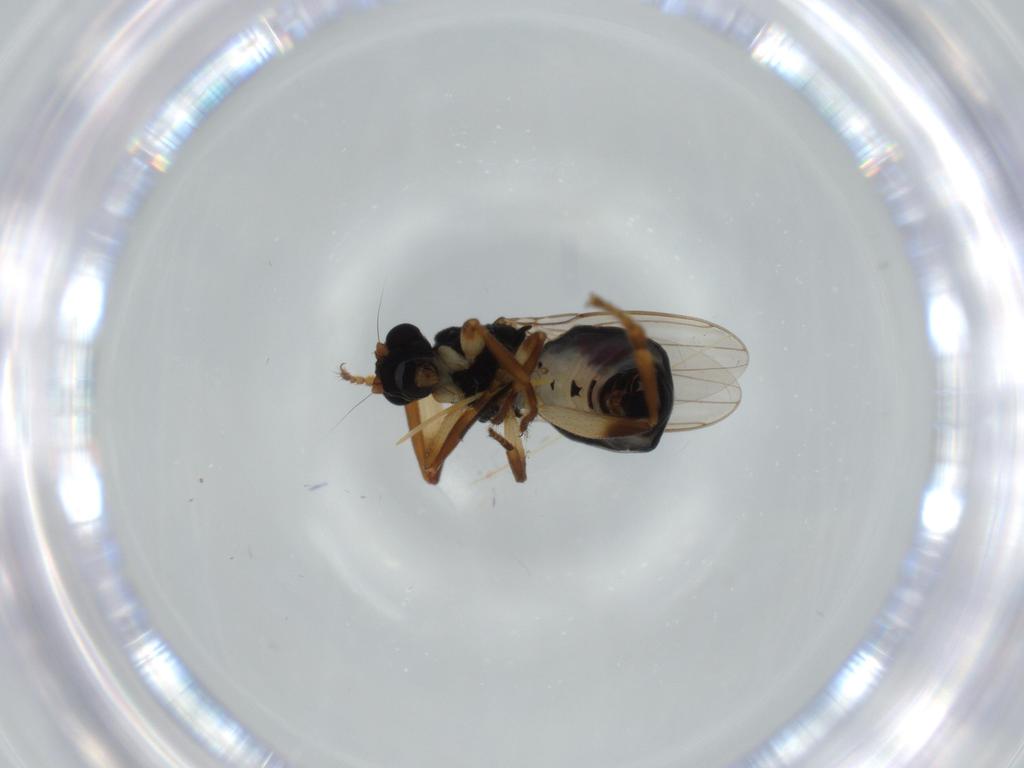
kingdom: Animalia
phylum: Arthropoda
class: Insecta
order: Diptera
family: Sphaeroceridae
